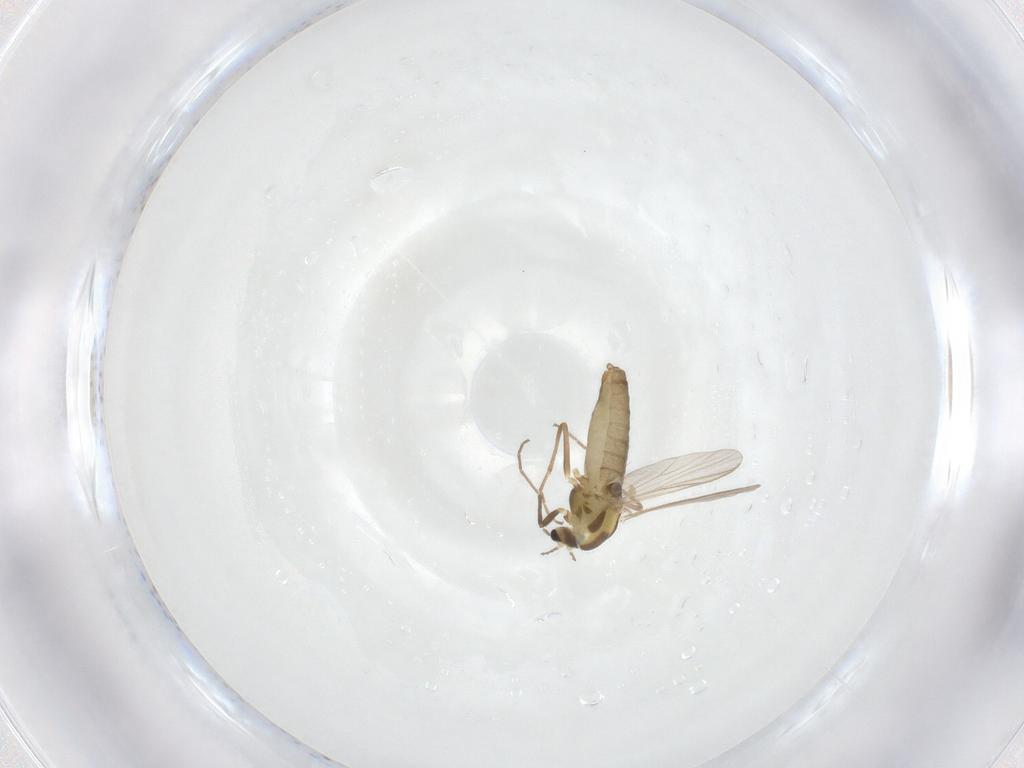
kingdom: Animalia
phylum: Arthropoda
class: Insecta
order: Diptera
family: Chironomidae
